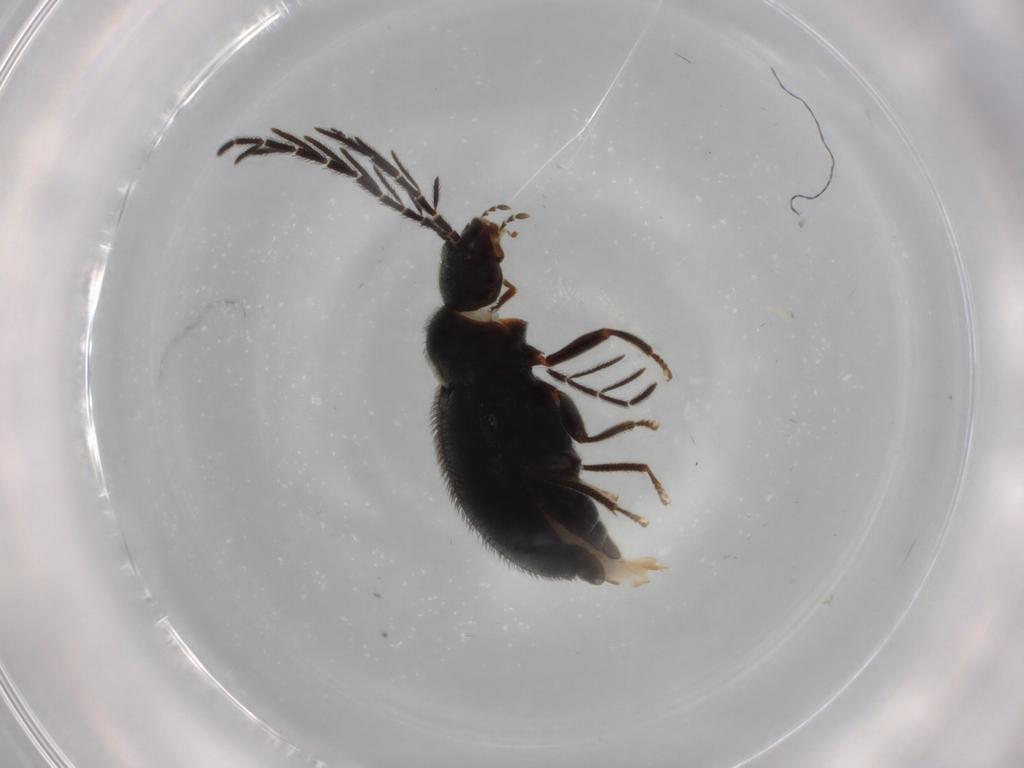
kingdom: Animalia
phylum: Arthropoda
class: Insecta
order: Coleoptera
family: Ptilodactylidae
